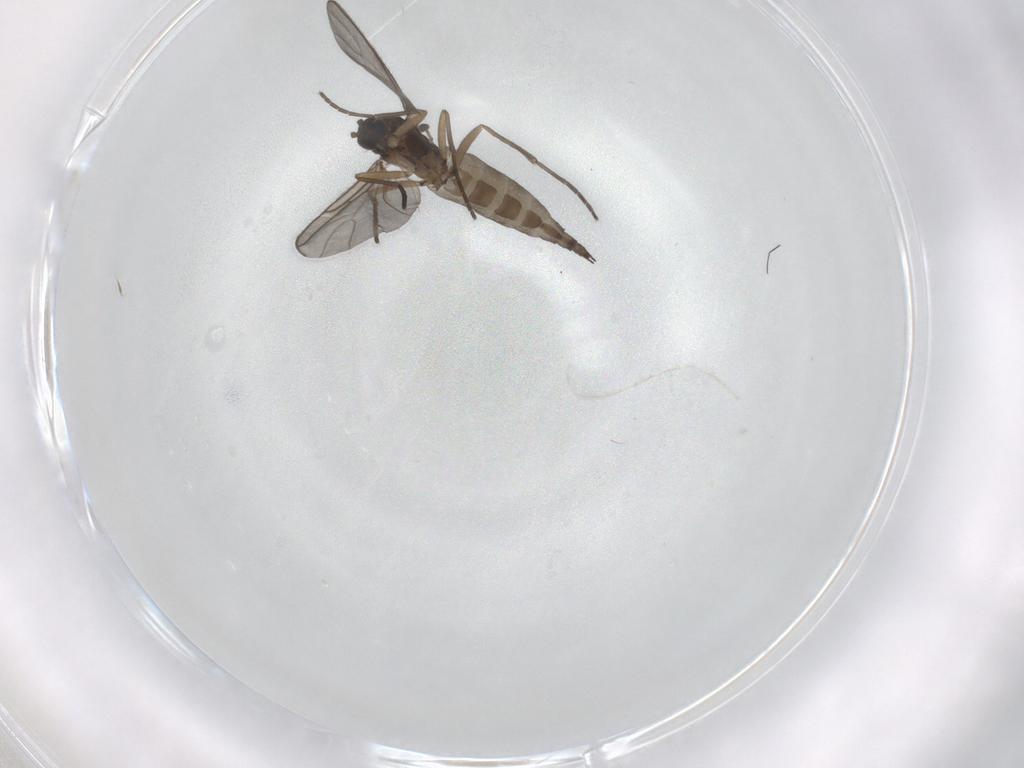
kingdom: Animalia
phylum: Arthropoda
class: Insecta
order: Diptera
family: Sciaridae
